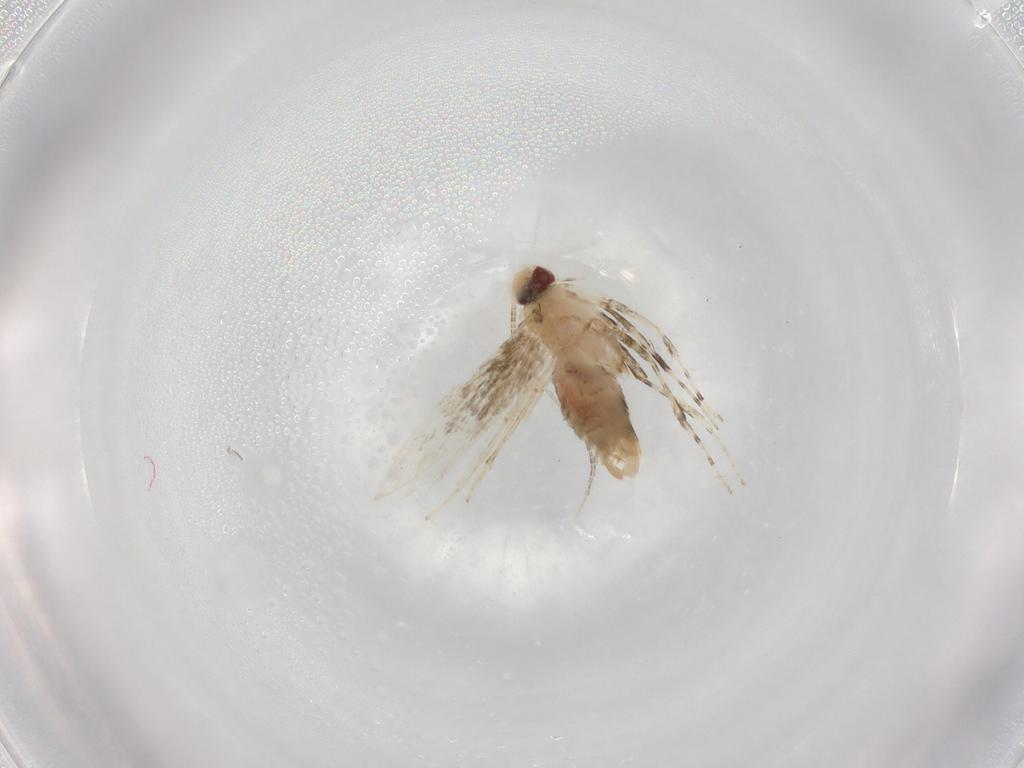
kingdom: Animalia
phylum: Arthropoda
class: Insecta
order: Lepidoptera
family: Gracillariidae
